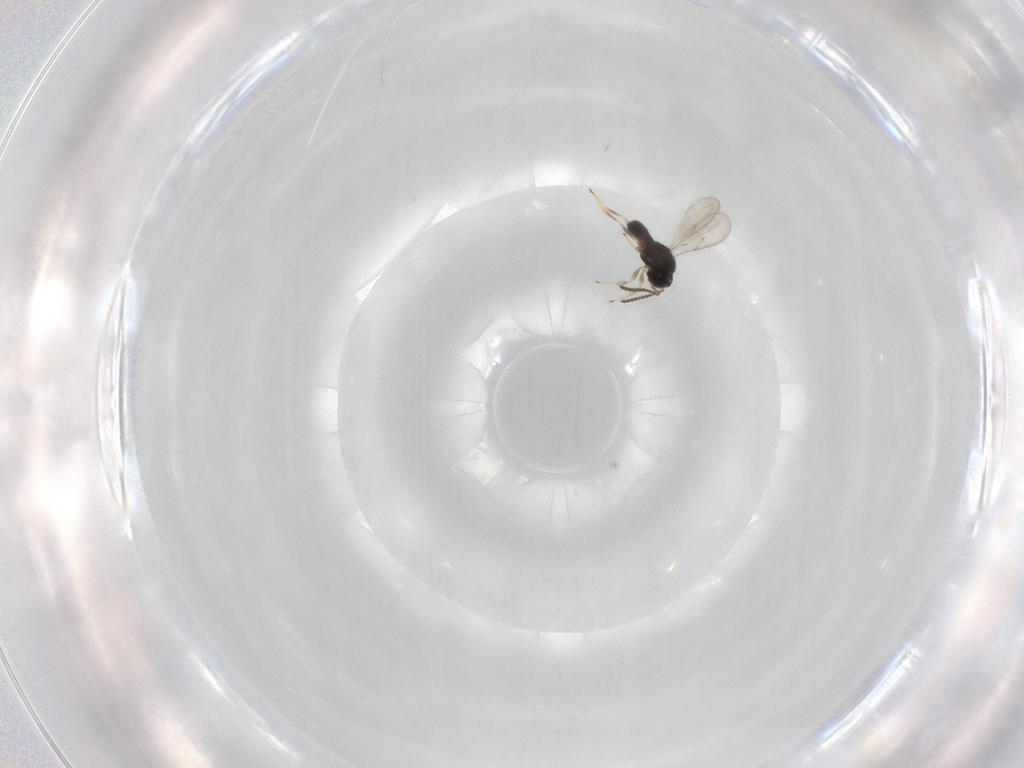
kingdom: Animalia
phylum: Arthropoda
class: Insecta
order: Hymenoptera
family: Scelionidae
